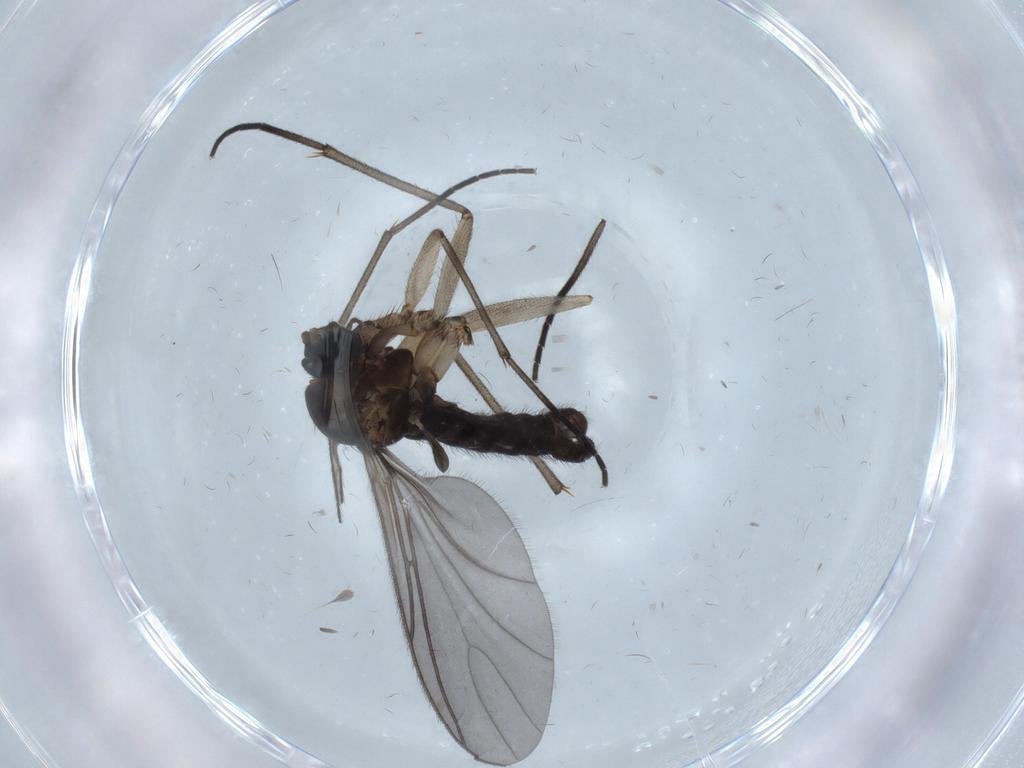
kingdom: Animalia
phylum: Arthropoda
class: Insecta
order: Diptera
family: Sciaridae
